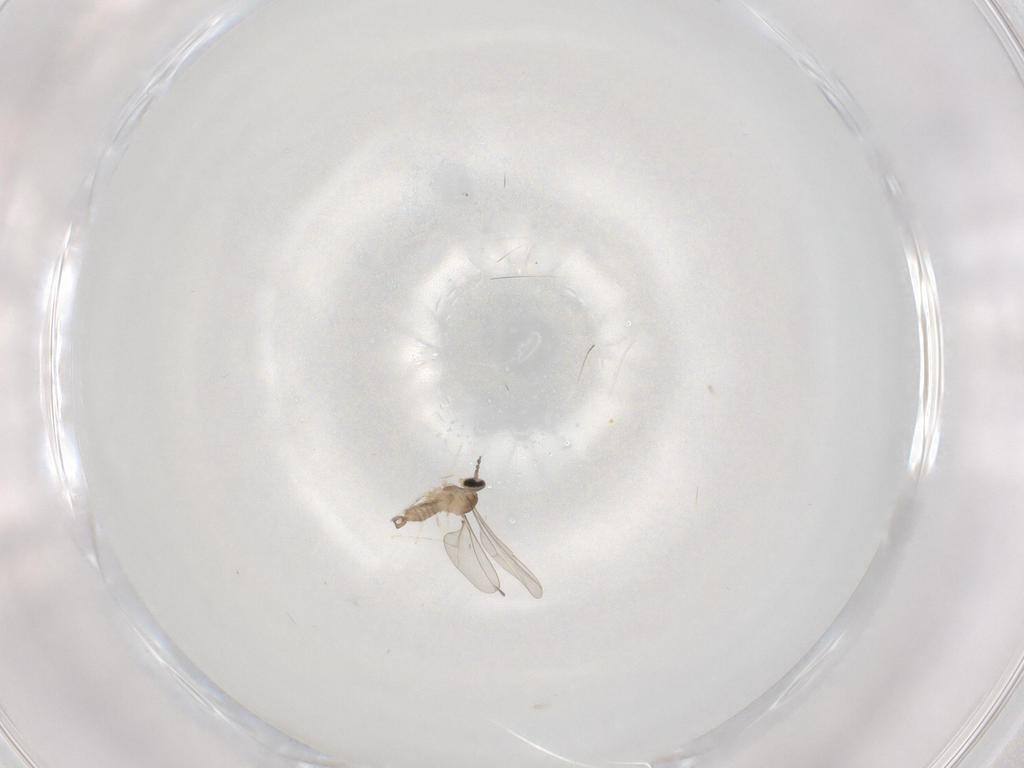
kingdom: Animalia
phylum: Arthropoda
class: Insecta
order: Diptera
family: Cecidomyiidae
